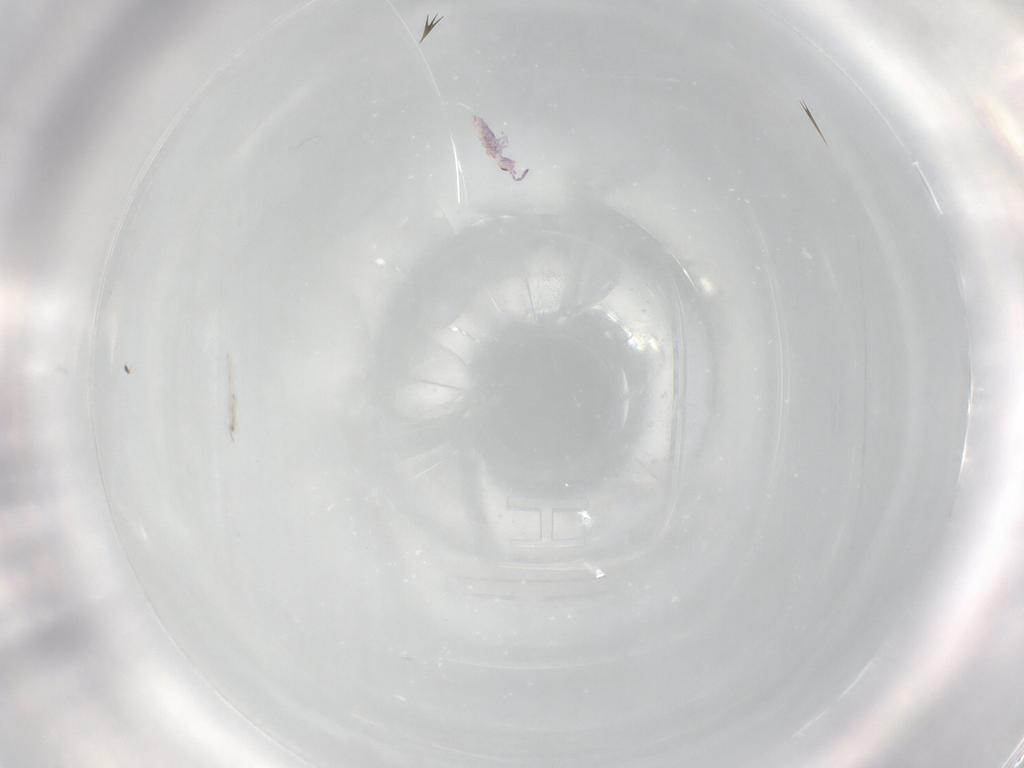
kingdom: Animalia
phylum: Arthropoda
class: Collembola
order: Entomobryomorpha
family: Entomobryidae
